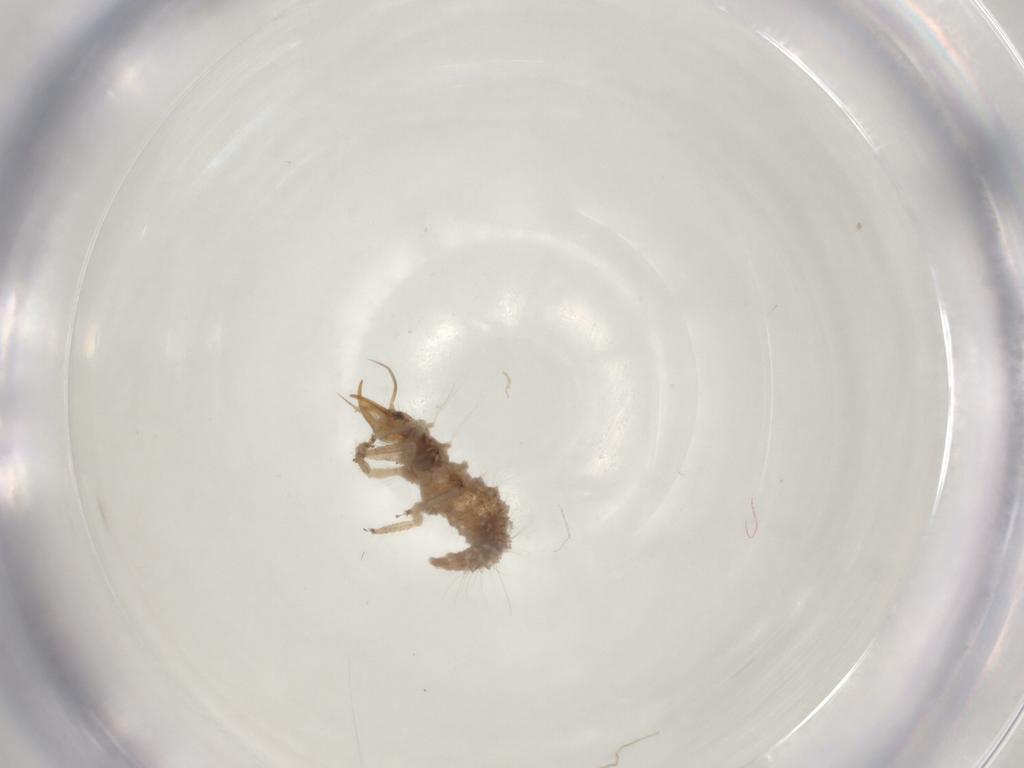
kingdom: Animalia
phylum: Arthropoda
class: Insecta
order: Neuroptera
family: Chrysopidae
